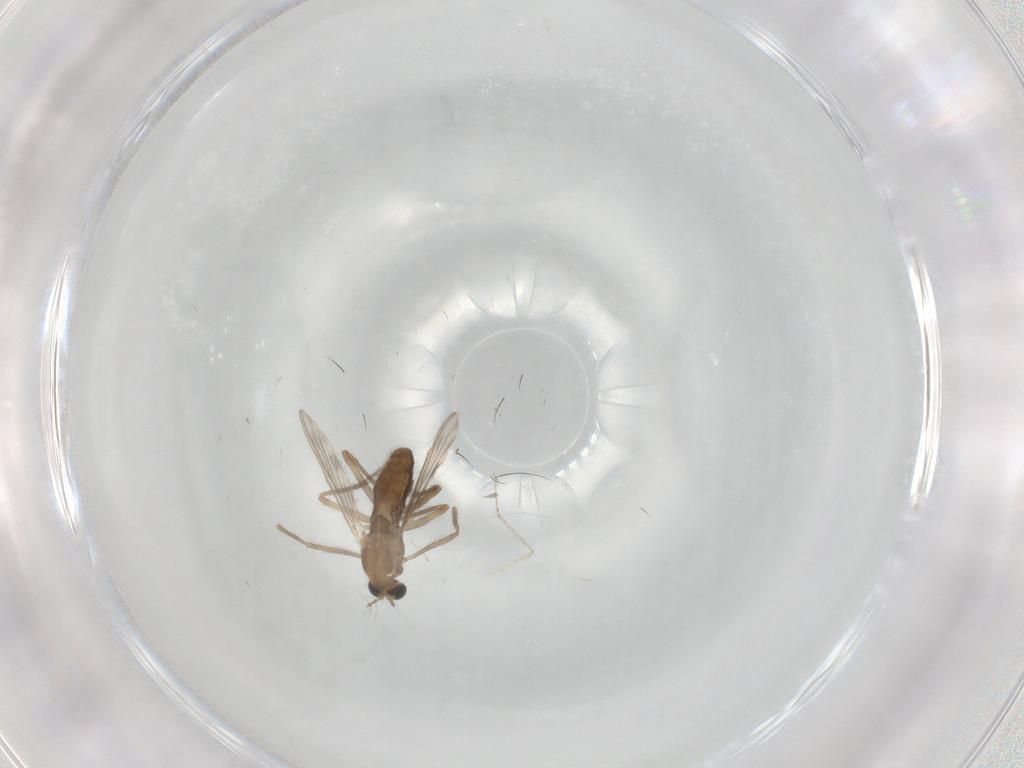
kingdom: Animalia
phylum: Arthropoda
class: Insecta
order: Diptera
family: Chironomidae
